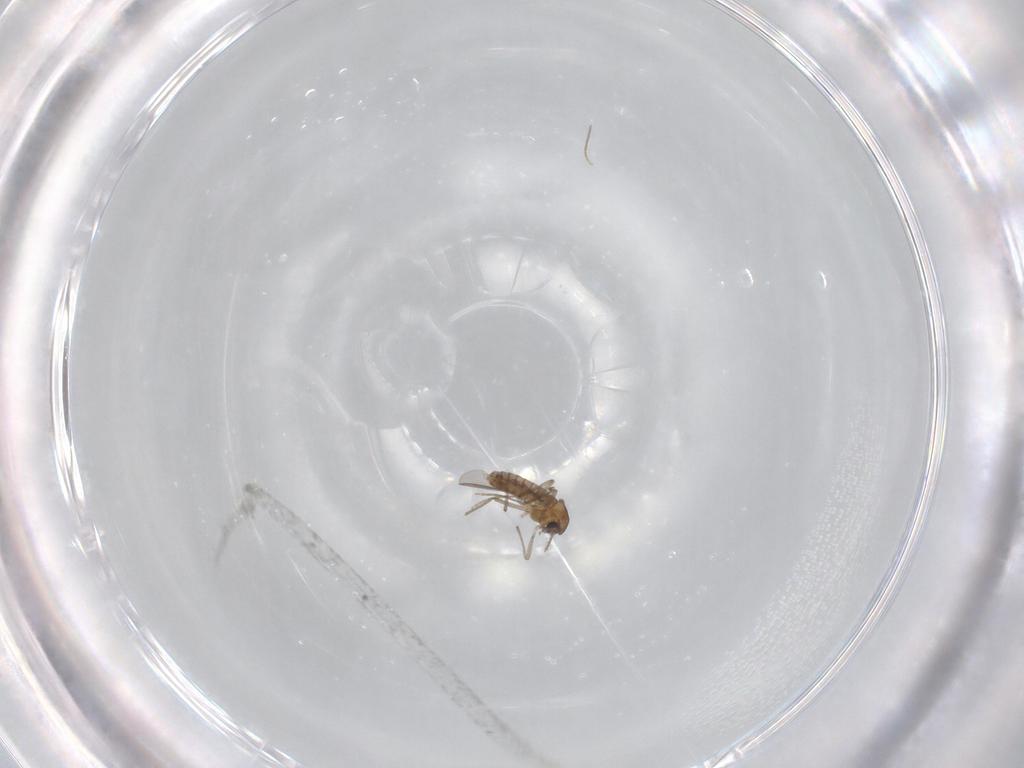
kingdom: Animalia
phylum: Arthropoda
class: Insecta
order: Diptera
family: Chironomidae
